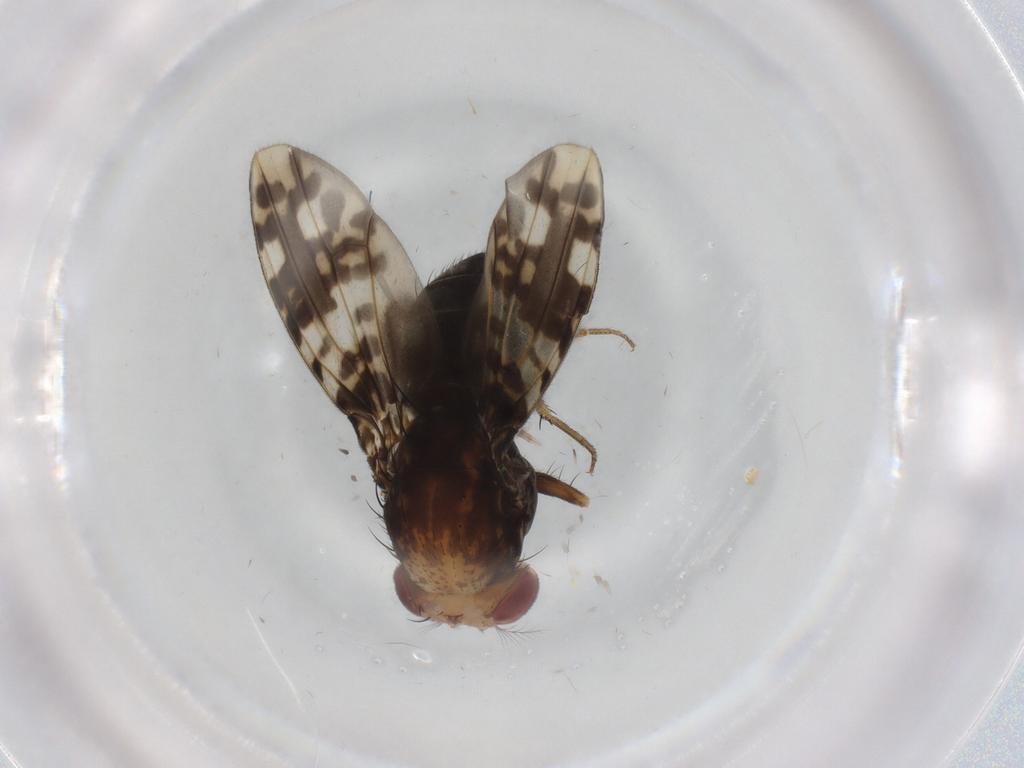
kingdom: Animalia
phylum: Arthropoda
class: Insecta
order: Diptera
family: Drosophilidae
